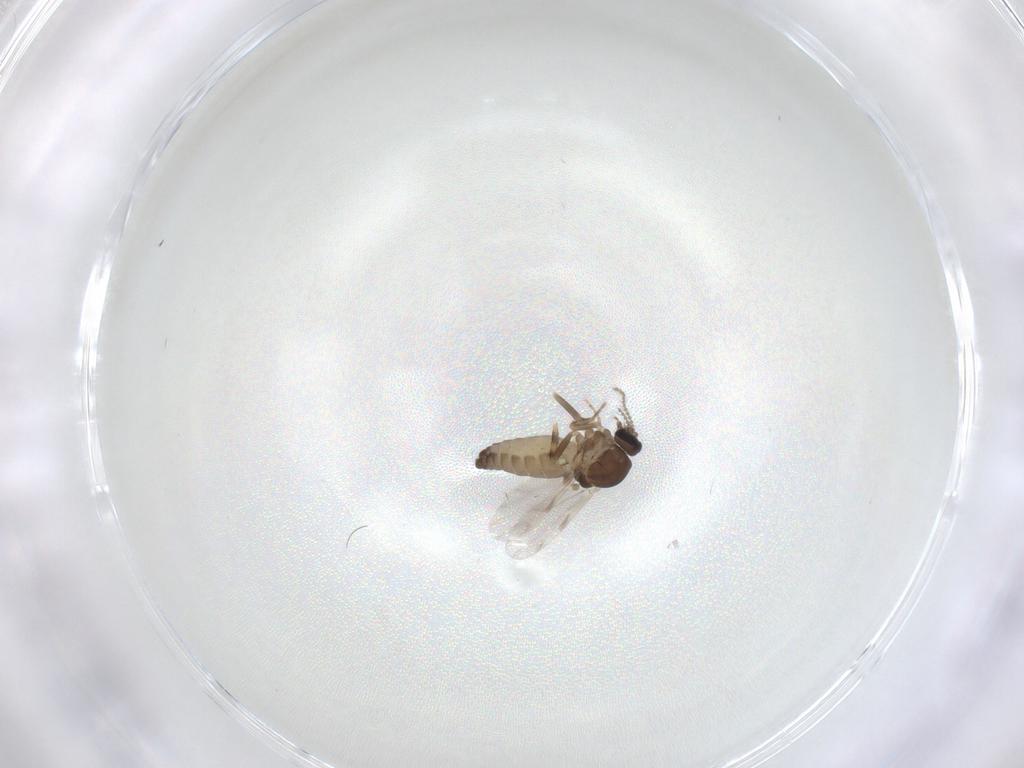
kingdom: Animalia
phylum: Arthropoda
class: Insecta
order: Diptera
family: Ceratopogonidae
